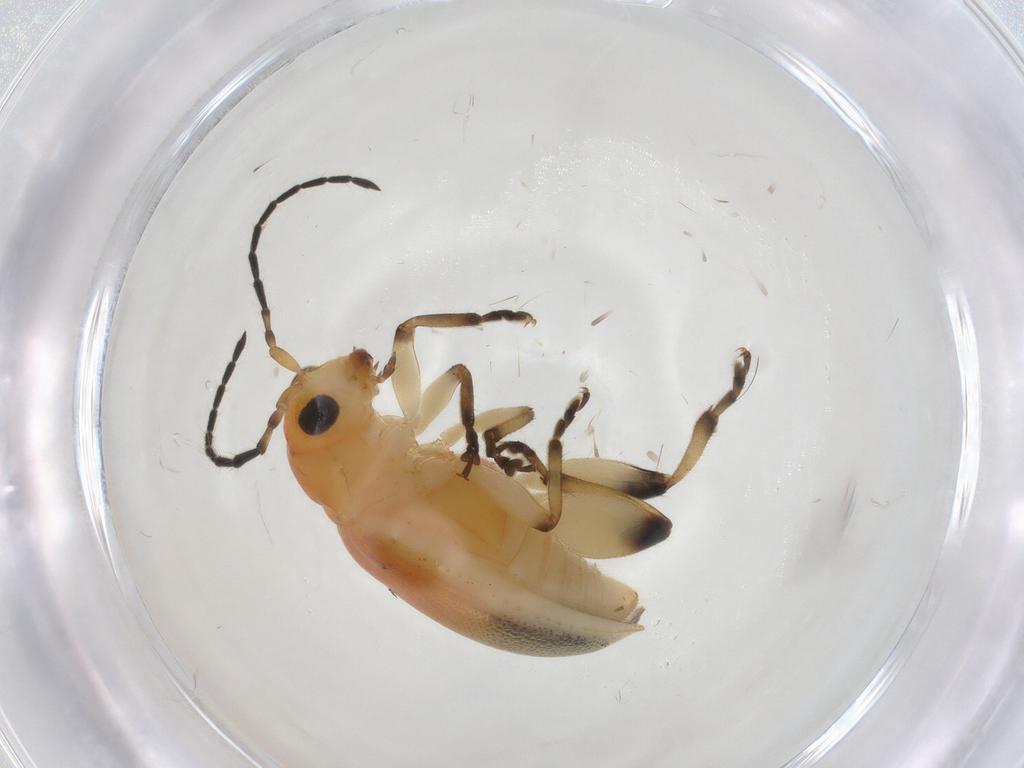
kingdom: Animalia
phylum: Arthropoda
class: Insecta
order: Coleoptera
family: Chrysomelidae
